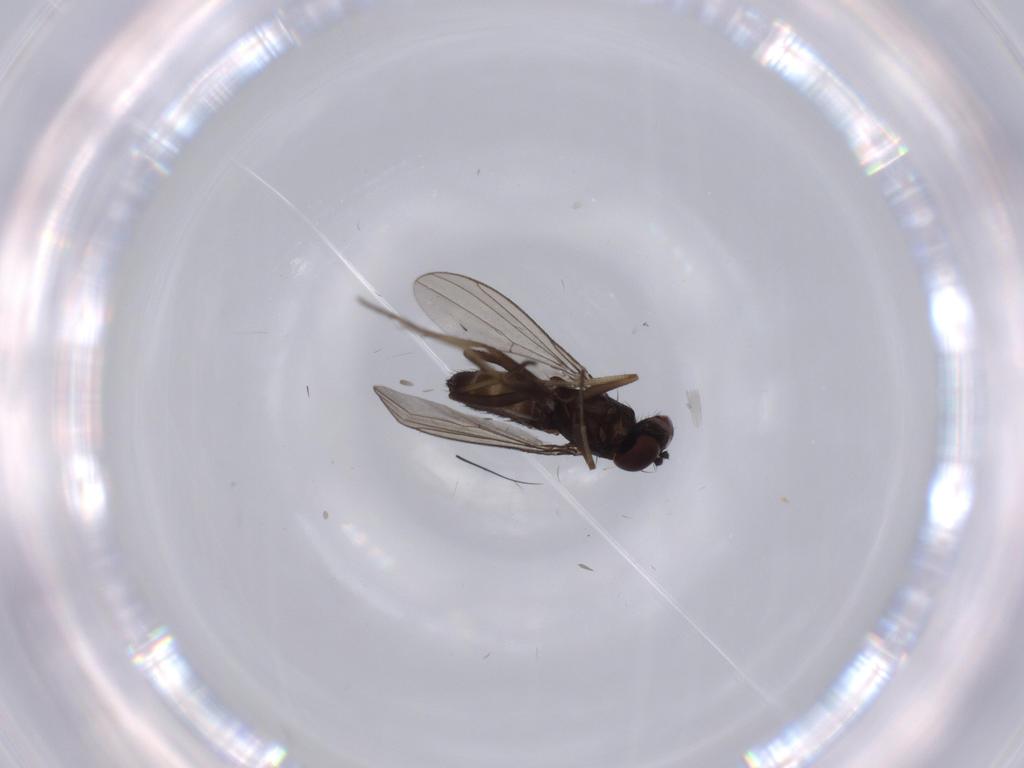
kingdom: Animalia
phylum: Arthropoda
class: Insecta
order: Diptera
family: Dolichopodidae
